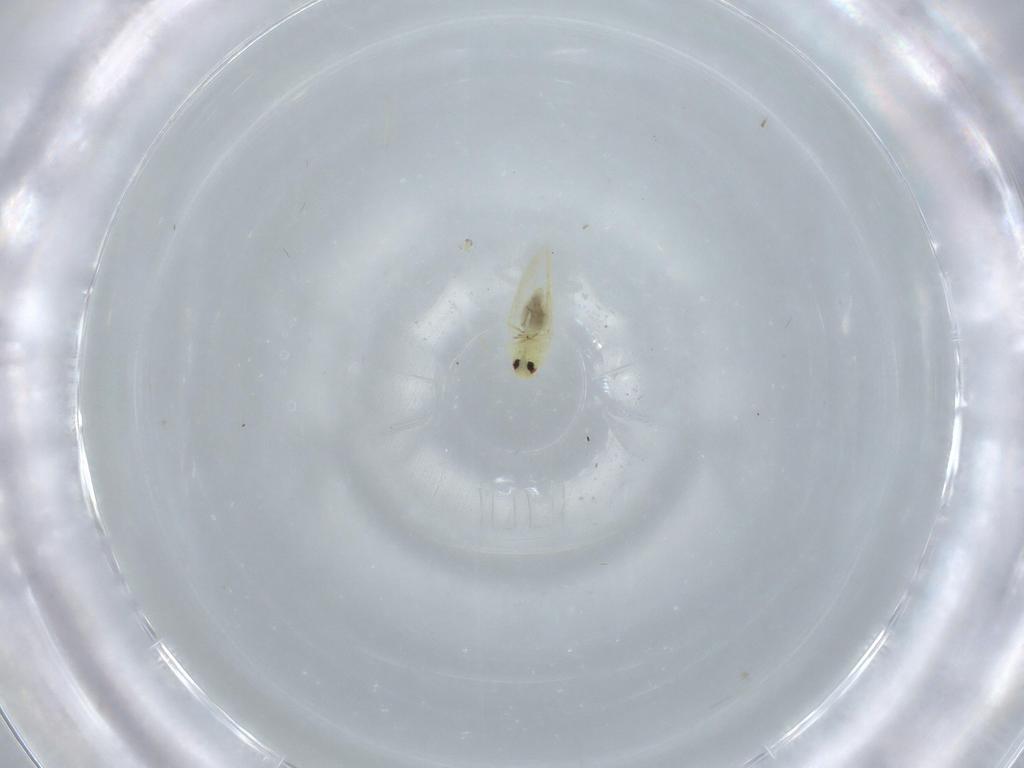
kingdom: Animalia
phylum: Arthropoda
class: Insecta
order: Hemiptera
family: Aleyrodidae
